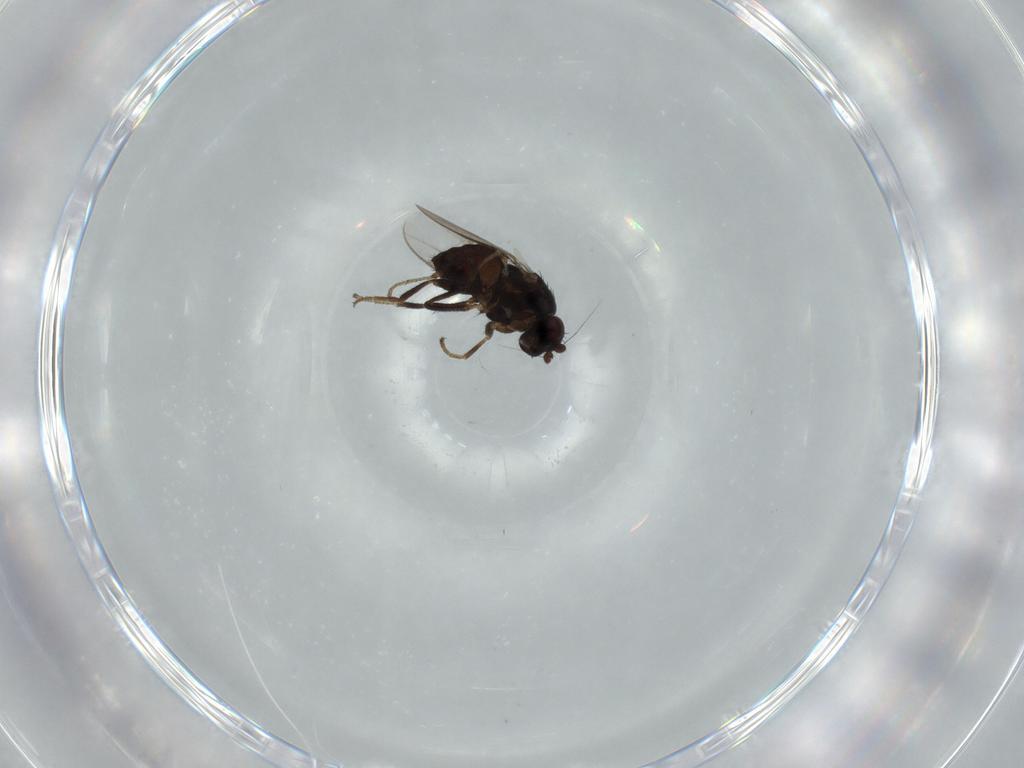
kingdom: Animalia
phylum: Arthropoda
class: Insecta
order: Diptera
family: Sphaeroceridae
